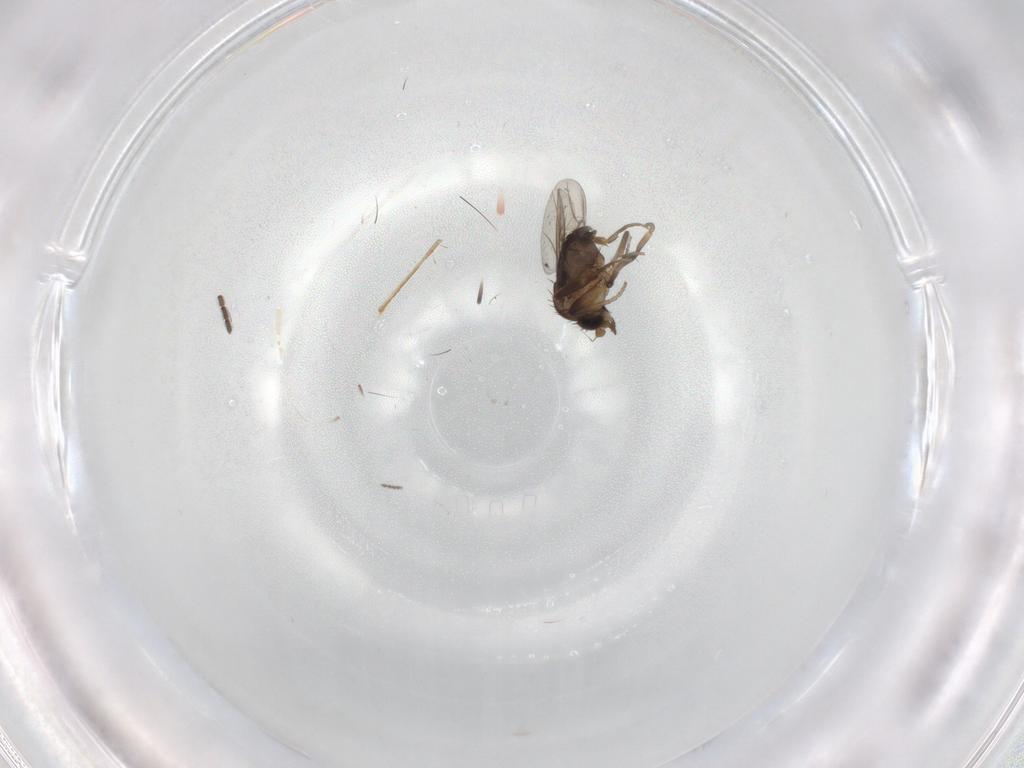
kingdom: Animalia
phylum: Arthropoda
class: Insecta
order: Diptera
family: Phoridae
